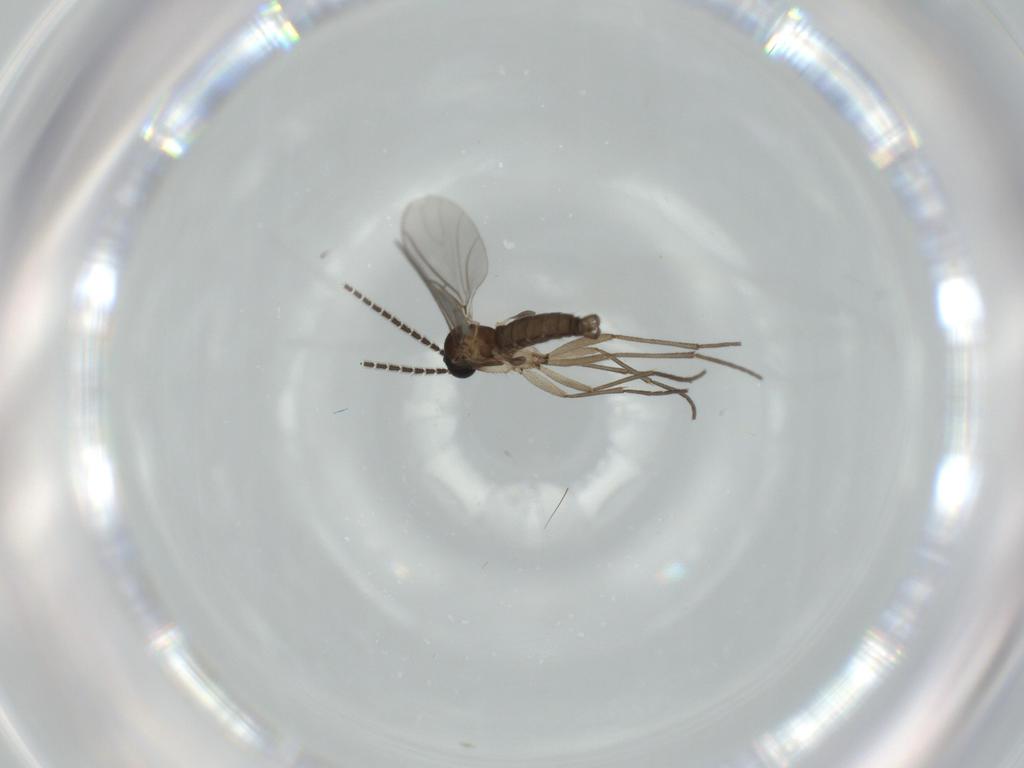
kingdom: Animalia
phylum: Arthropoda
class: Insecta
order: Diptera
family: Sciaridae
